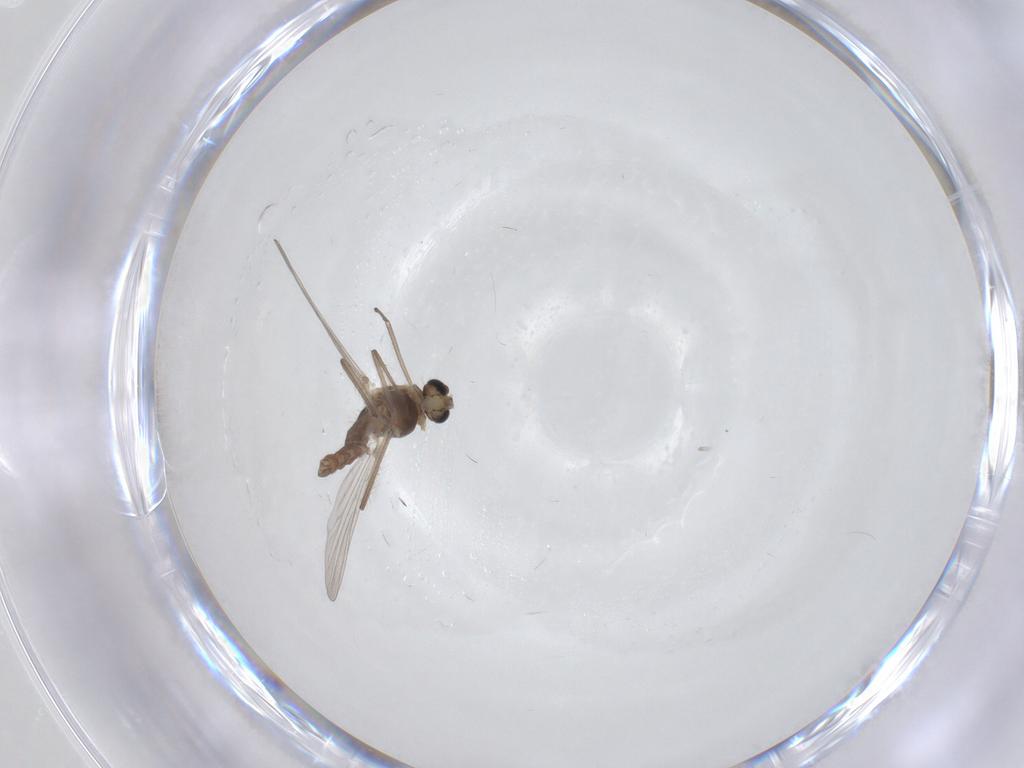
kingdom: Animalia
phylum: Arthropoda
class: Insecta
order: Diptera
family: Chironomidae
